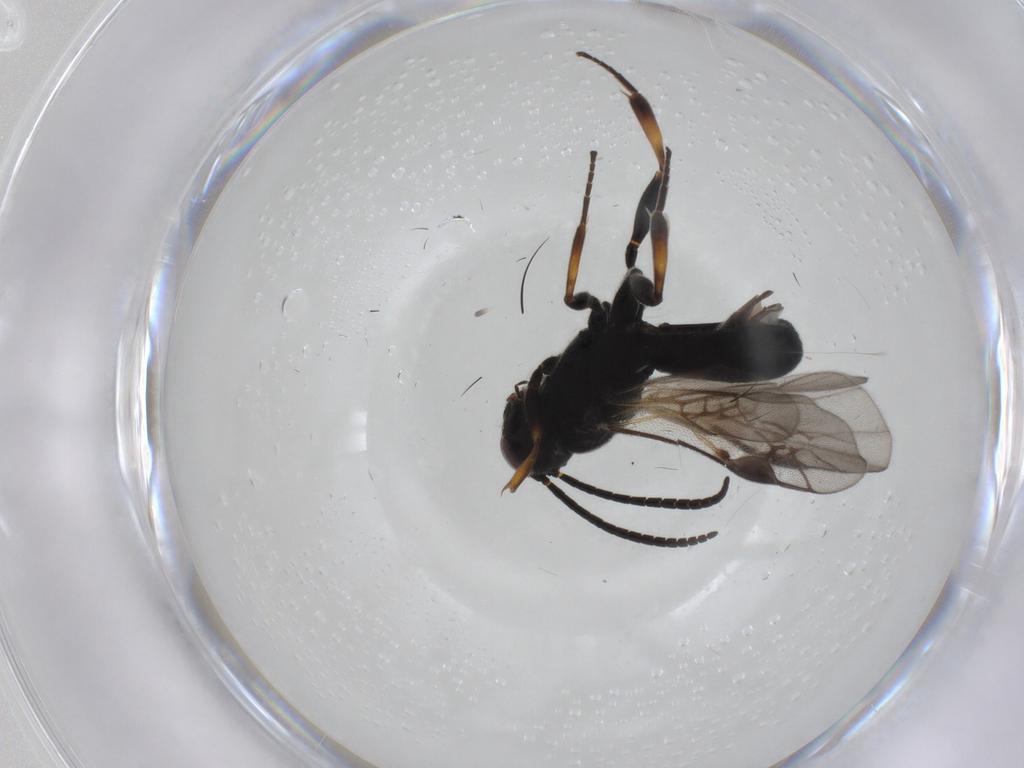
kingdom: Animalia
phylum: Arthropoda
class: Insecta
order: Hymenoptera
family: Braconidae
